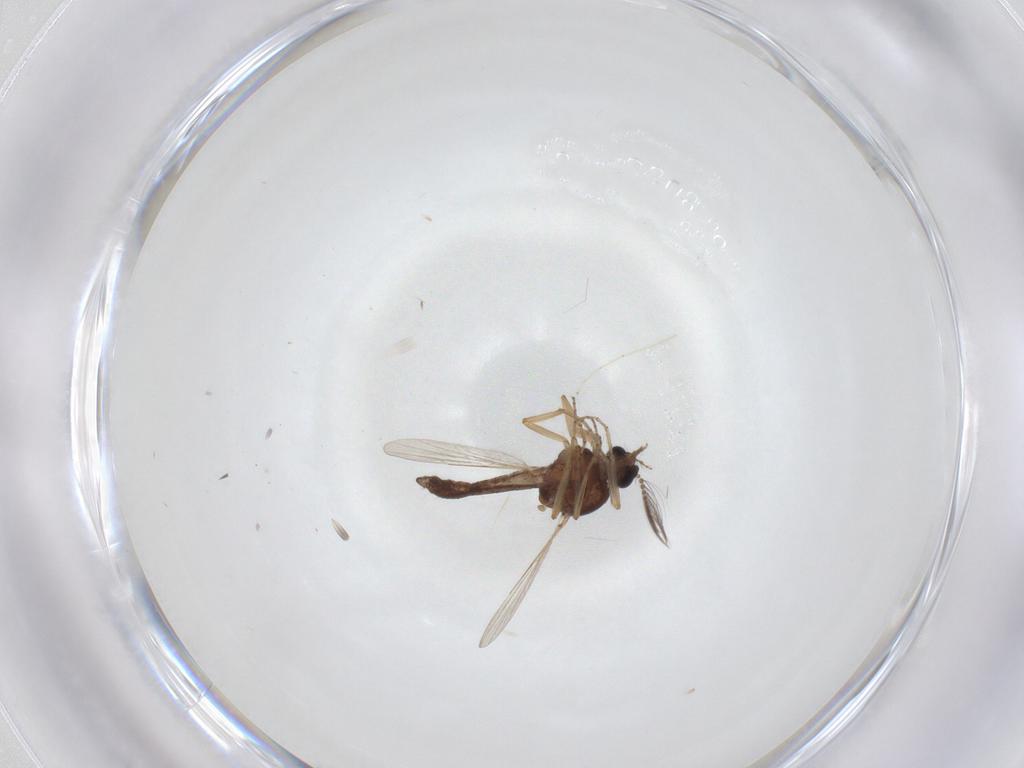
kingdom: Animalia
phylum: Arthropoda
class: Insecta
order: Diptera
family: Ceratopogonidae
